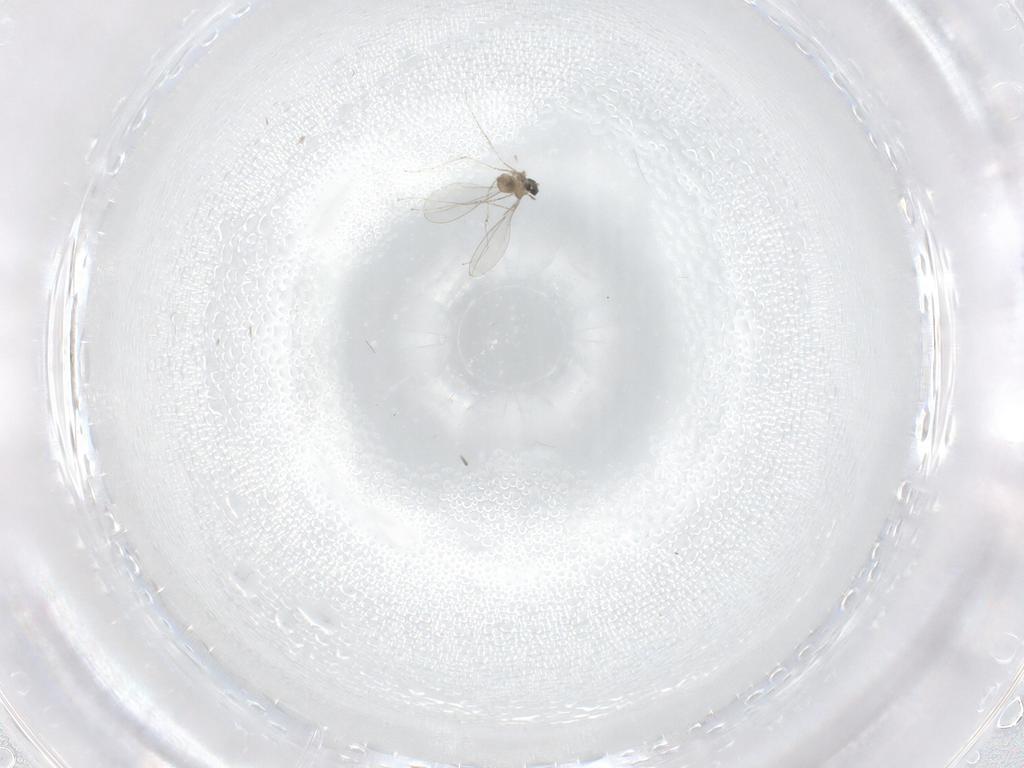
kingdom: Animalia
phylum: Arthropoda
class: Insecta
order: Diptera
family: Cecidomyiidae
